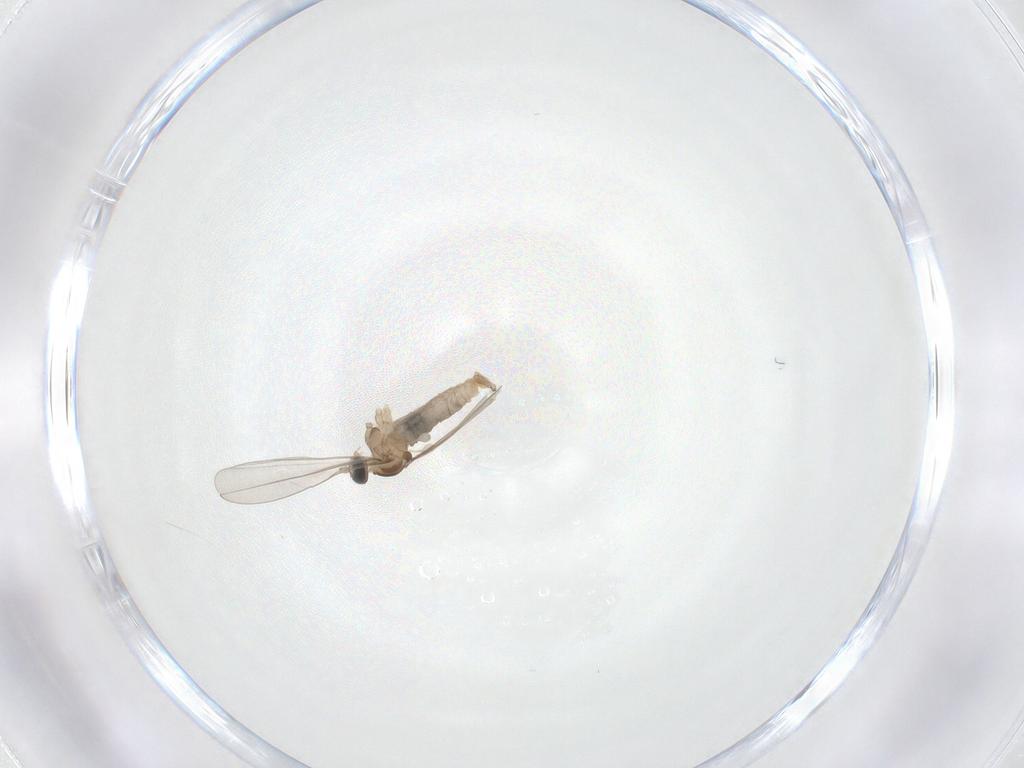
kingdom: Animalia
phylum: Arthropoda
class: Insecta
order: Diptera
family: Cecidomyiidae
